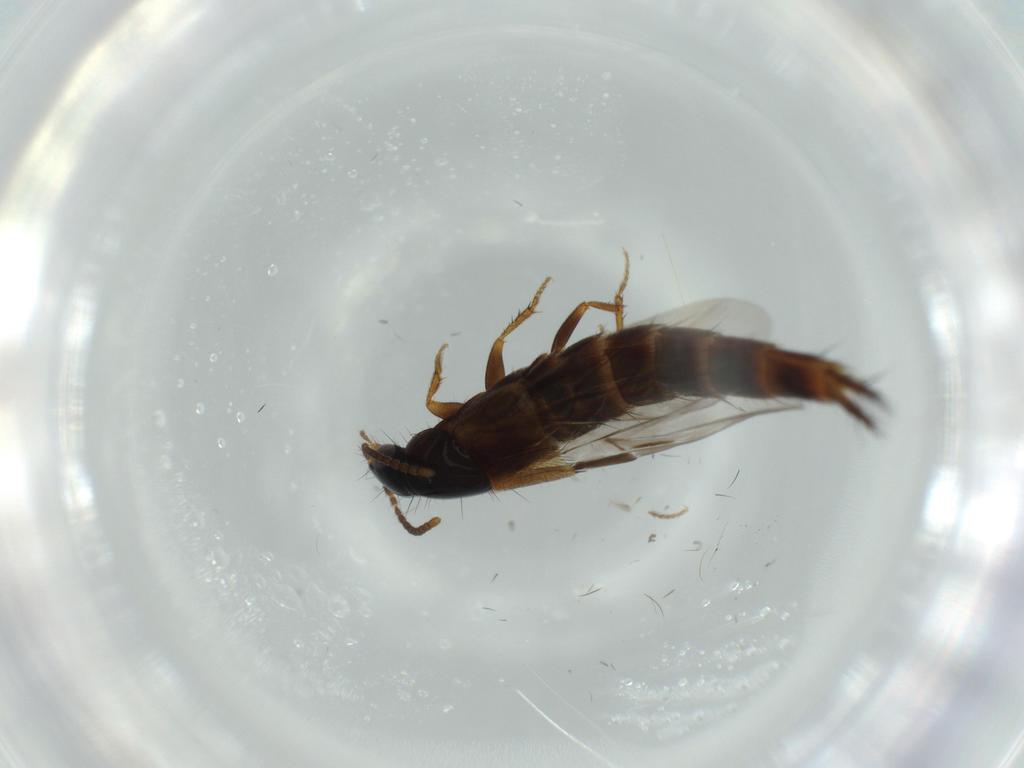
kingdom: Animalia
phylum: Arthropoda
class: Insecta
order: Coleoptera
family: Staphylinidae
